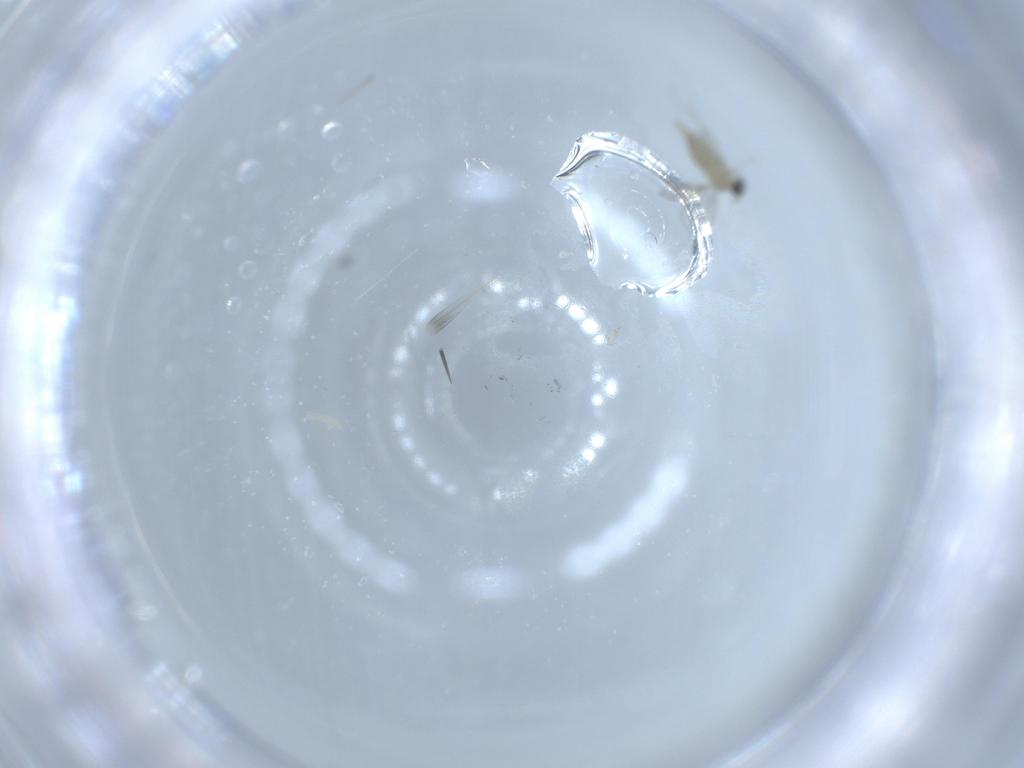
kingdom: Animalia
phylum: Arthropoda
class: Insecta
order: Diptera
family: Cecidomyiidae
